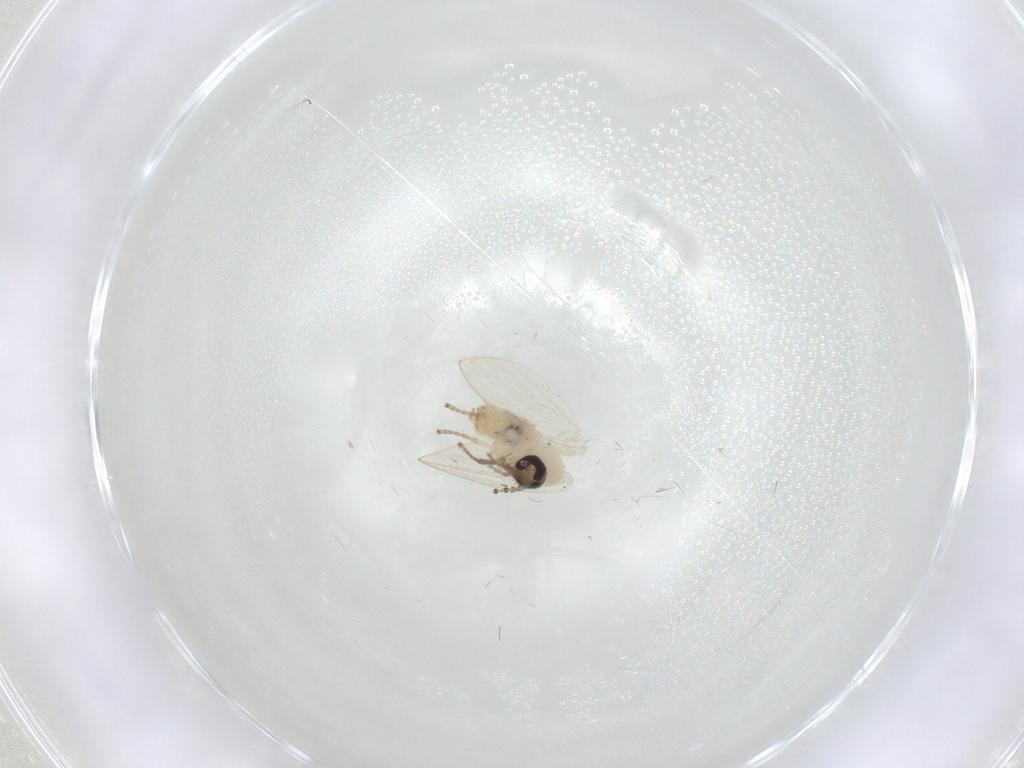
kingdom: Animalia
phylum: Arthropoda
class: Insecta
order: Diptera
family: Psychodidae
